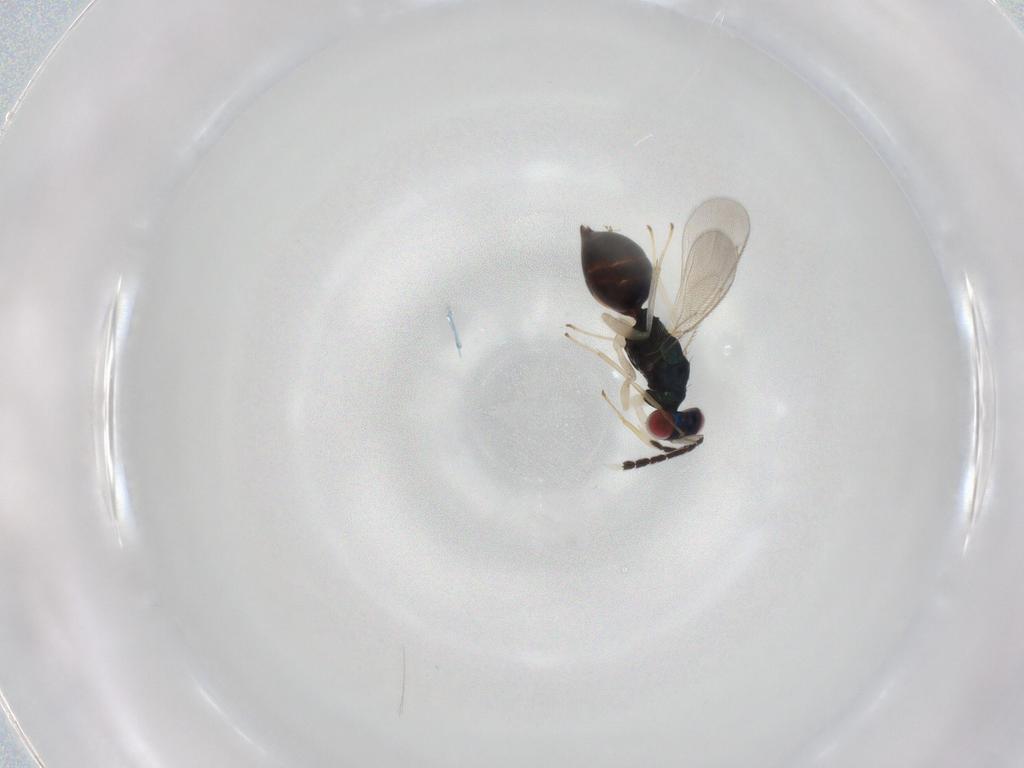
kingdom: Animalia
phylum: Arthropoda
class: Insecta
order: Hymenoptera
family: Eulophidae
